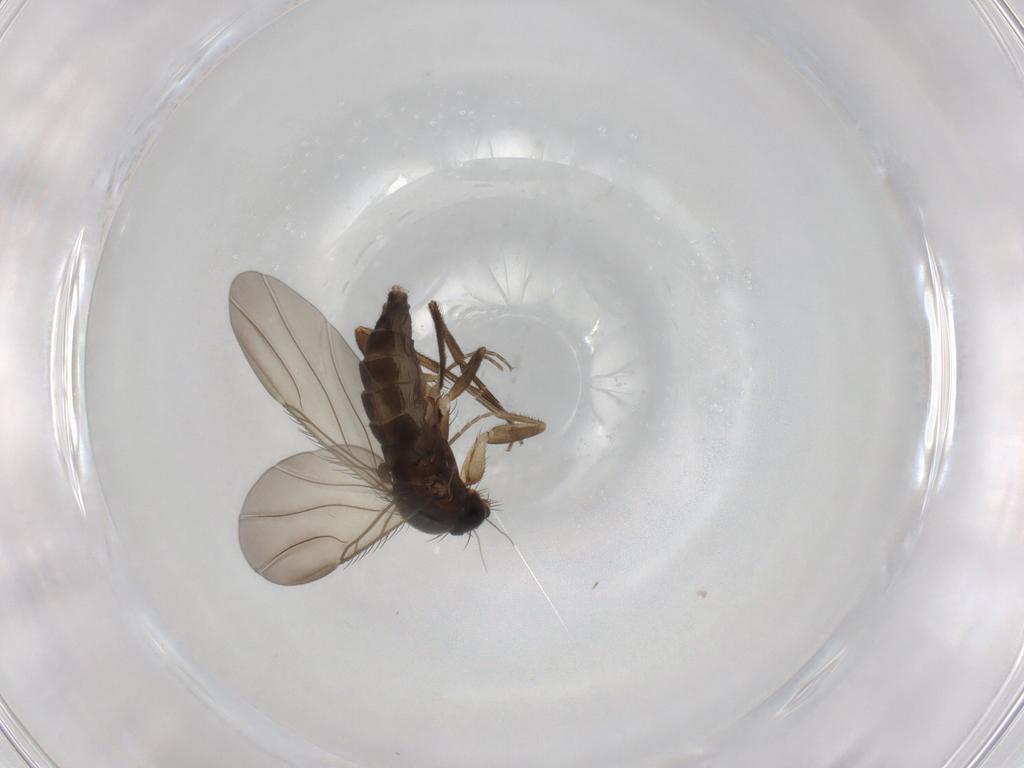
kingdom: Animalia
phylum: Arthropoda
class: Insecta
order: Diptera
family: Phoridae
